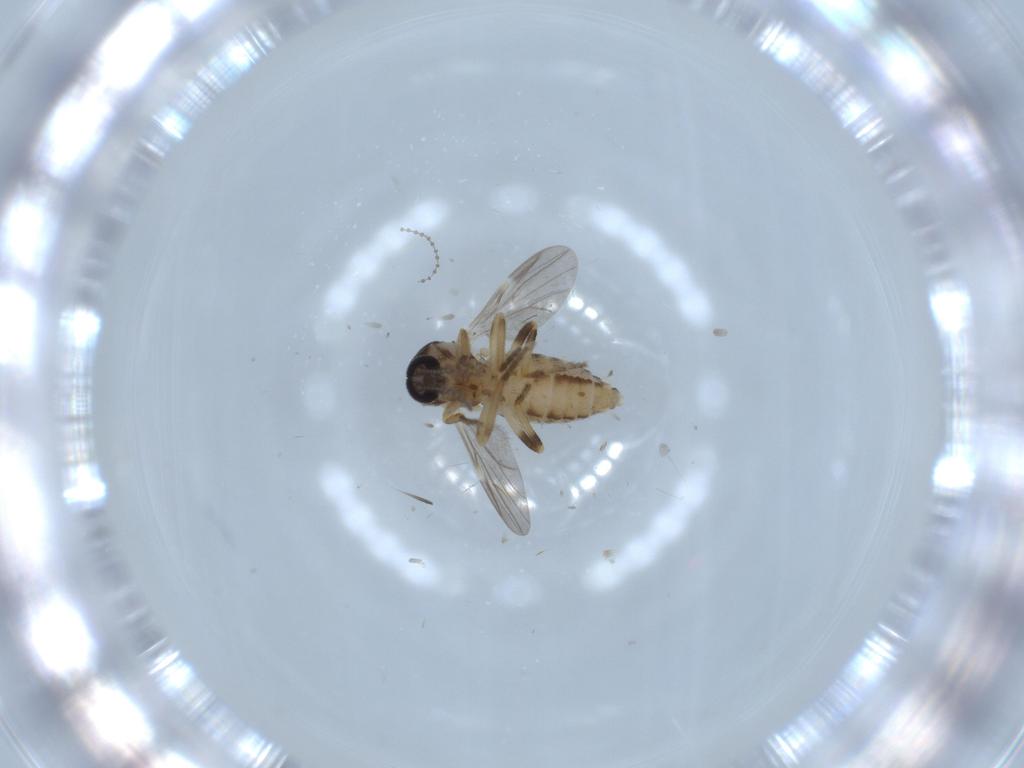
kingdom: Animalia
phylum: Arthropoda
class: Insecta
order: Diptera
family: Ceratopogonidae
